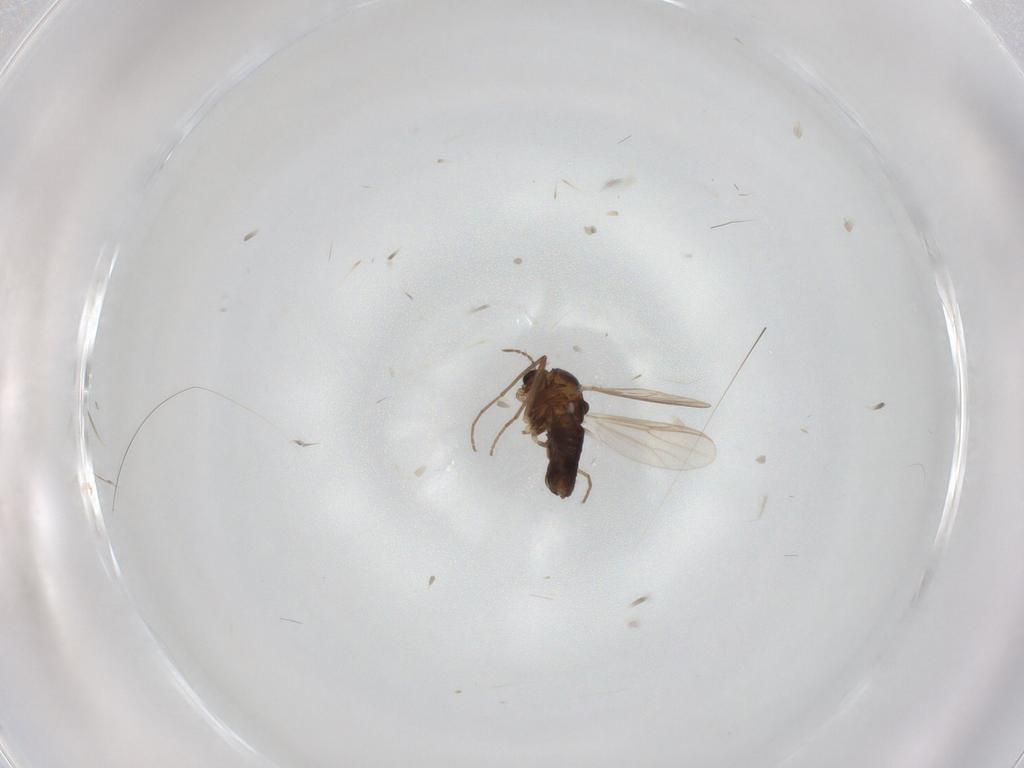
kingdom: Animalia
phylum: Arthropoda
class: Insecta
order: Diptera
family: Chironomidae
